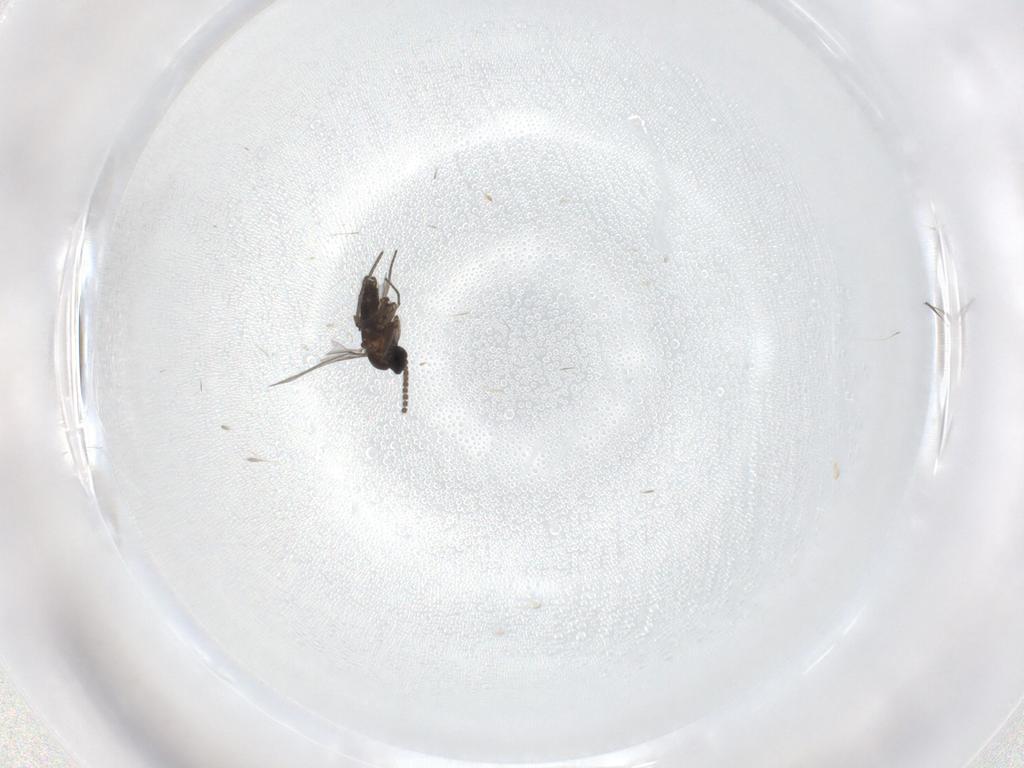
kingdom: Animalia
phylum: Arthropoda
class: Insecta
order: Diptera
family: Sciaridae
